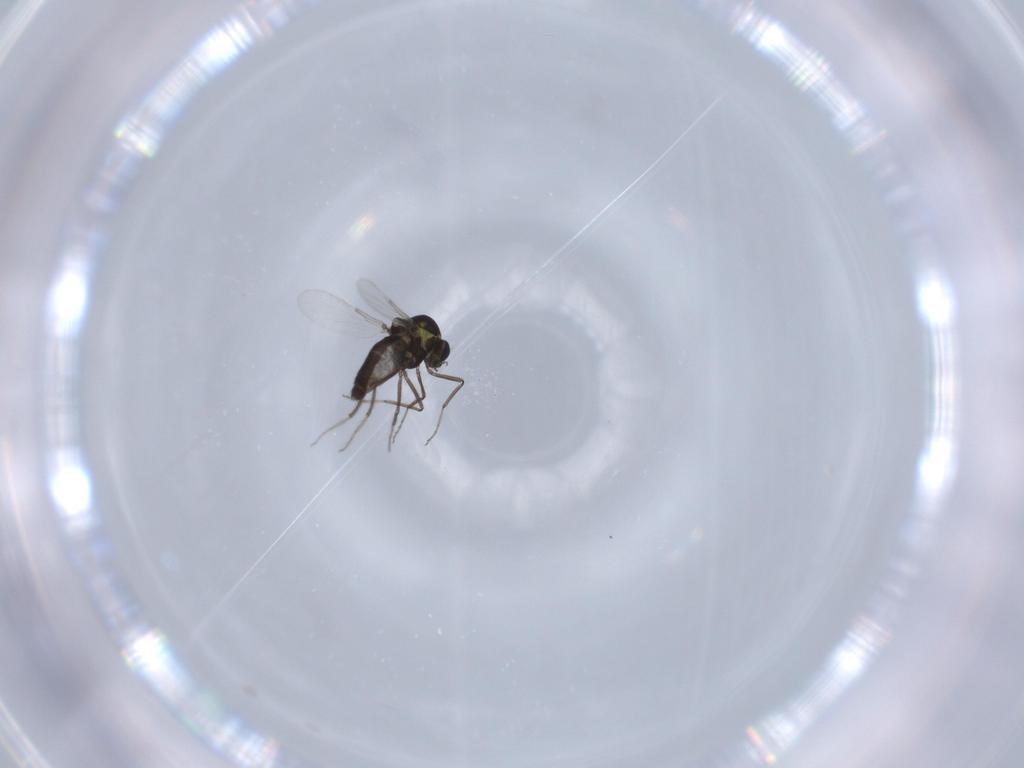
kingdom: Animalia
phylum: Arthropoda
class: Insecta
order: Diptera
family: Ceratopogonidae
